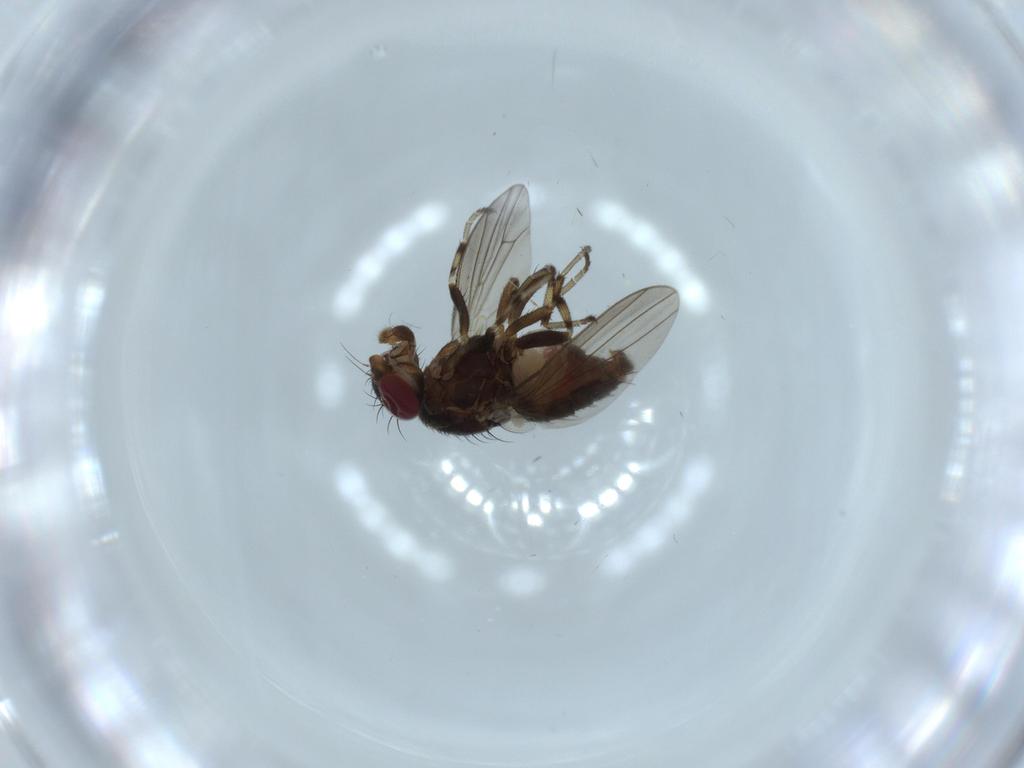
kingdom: Animalia
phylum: Arthropoda
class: Insecta
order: Diptera
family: Heleomyzidae
